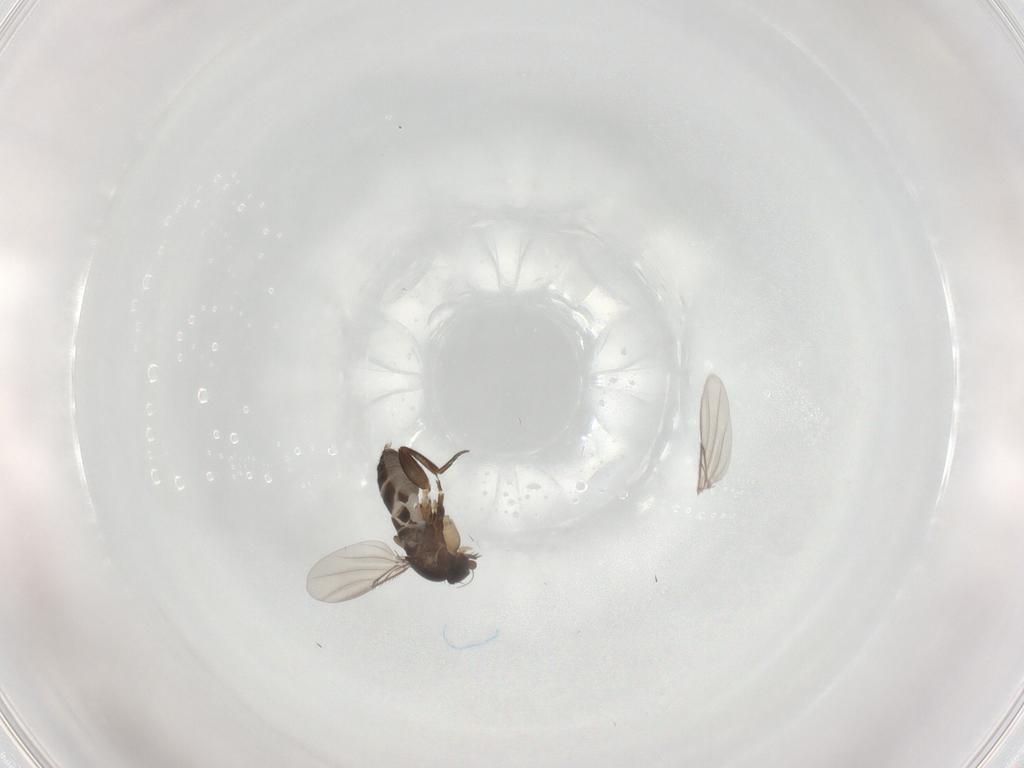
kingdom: Animalia
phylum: Arthropoda
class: Insecta
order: Diptera
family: Phoridae
